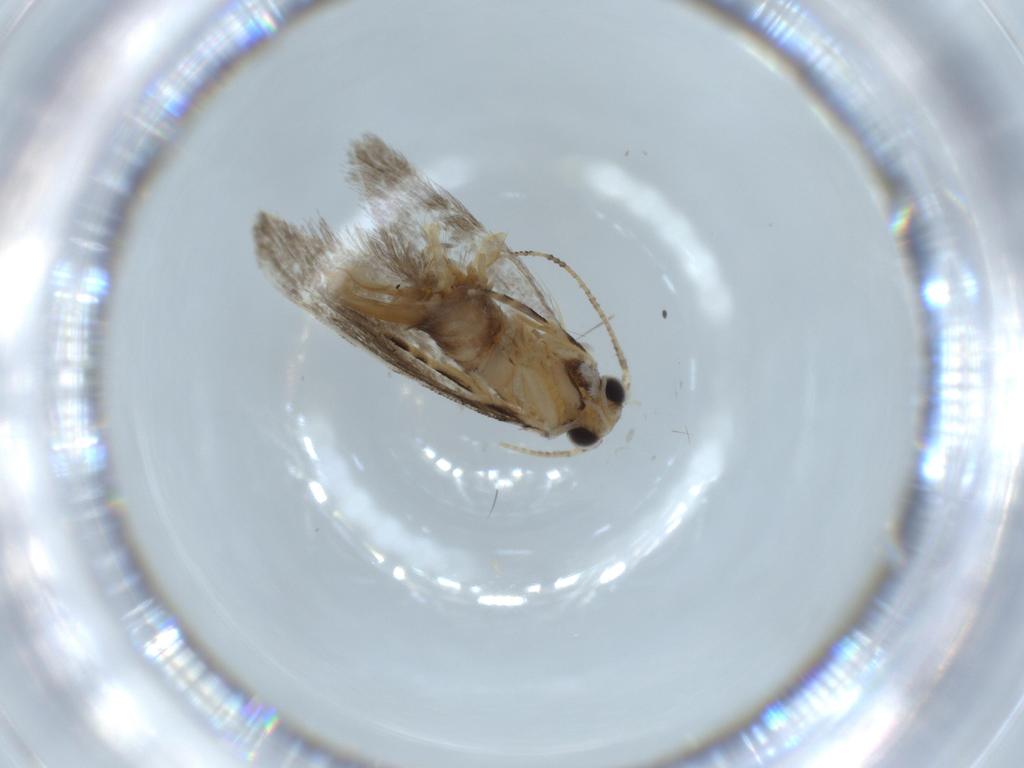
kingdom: Animalia
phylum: Arthropoda
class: Insecta
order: Lepidoptera
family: Tineidae
